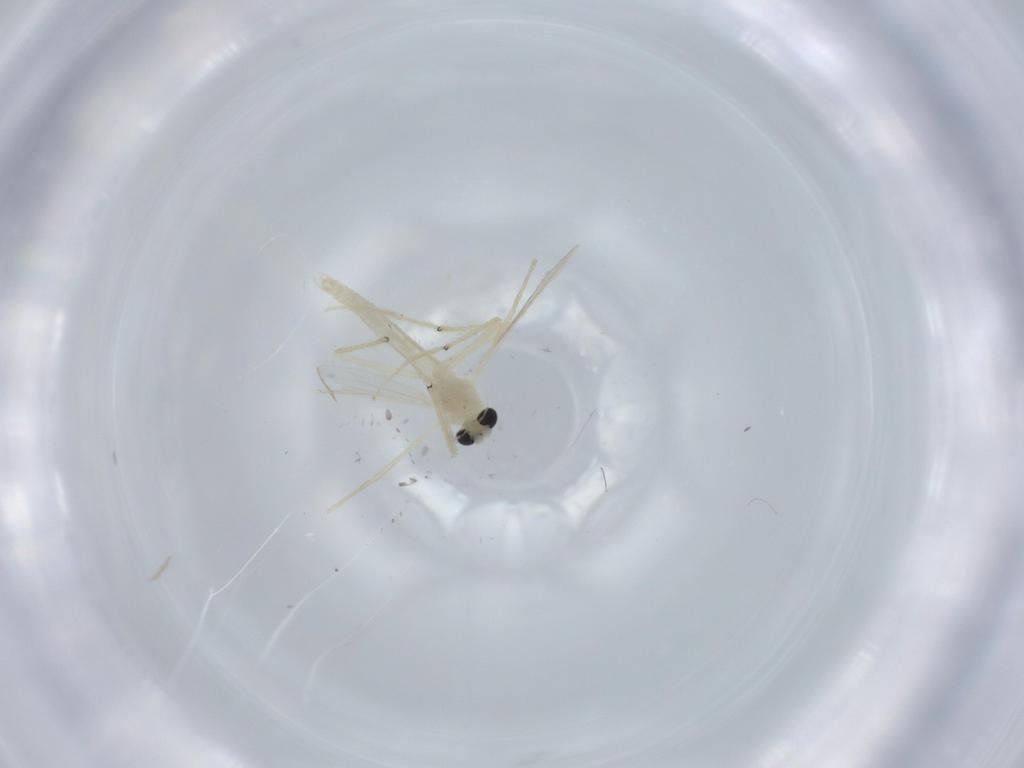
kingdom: Animalia
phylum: Arthropoda
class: Insecta
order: Diptera
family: Chironomidae
